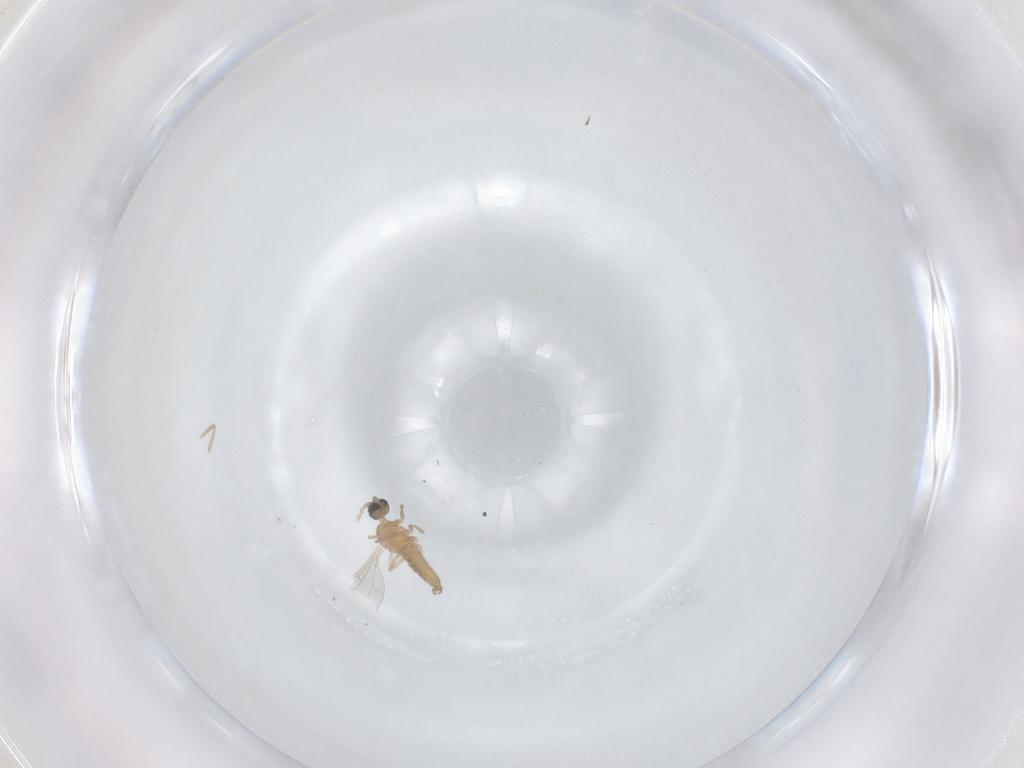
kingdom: Animalia
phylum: Arthropoda
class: Insecta
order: Diptera
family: Cecidomyiidae
